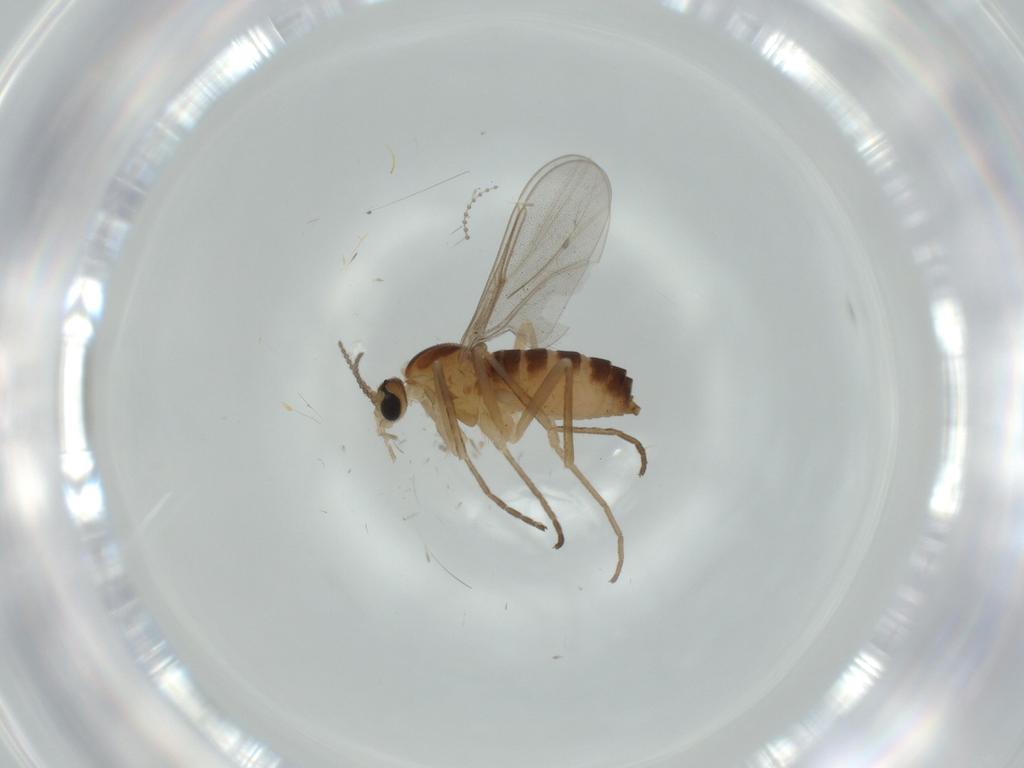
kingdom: Animalia
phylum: Arthropoda
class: Insecta
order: Diptera
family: Cecidomyiidae
